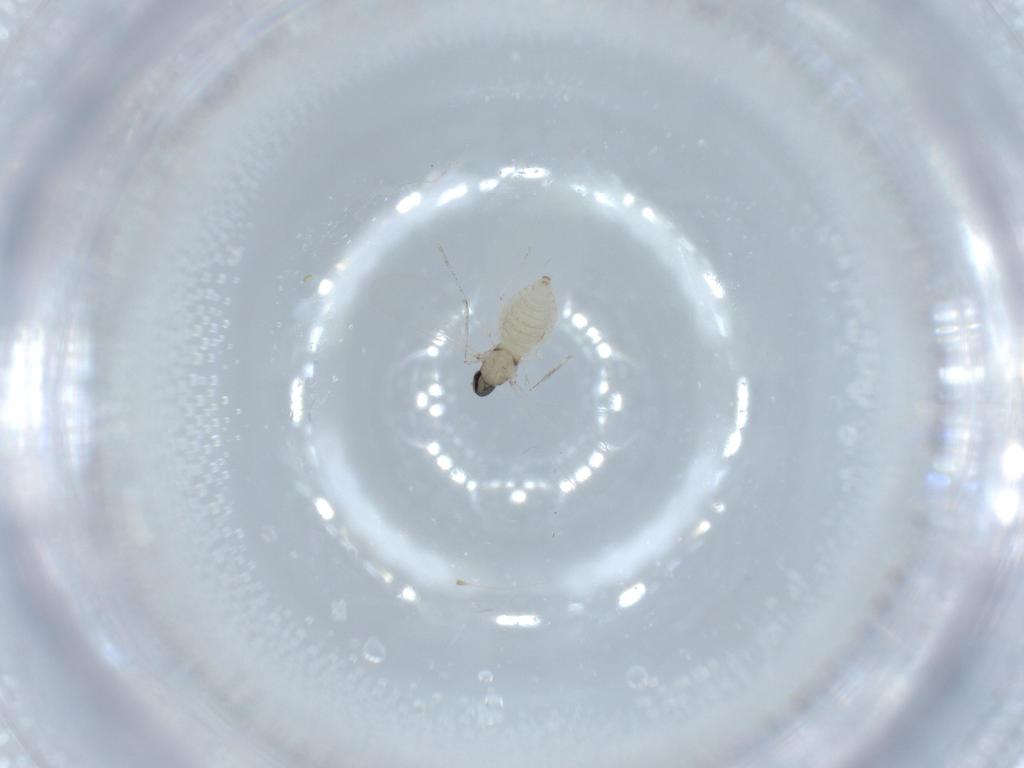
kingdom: Animalia
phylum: Arthropoda
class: Insecta
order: Diptera
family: Cecidomyiidae
